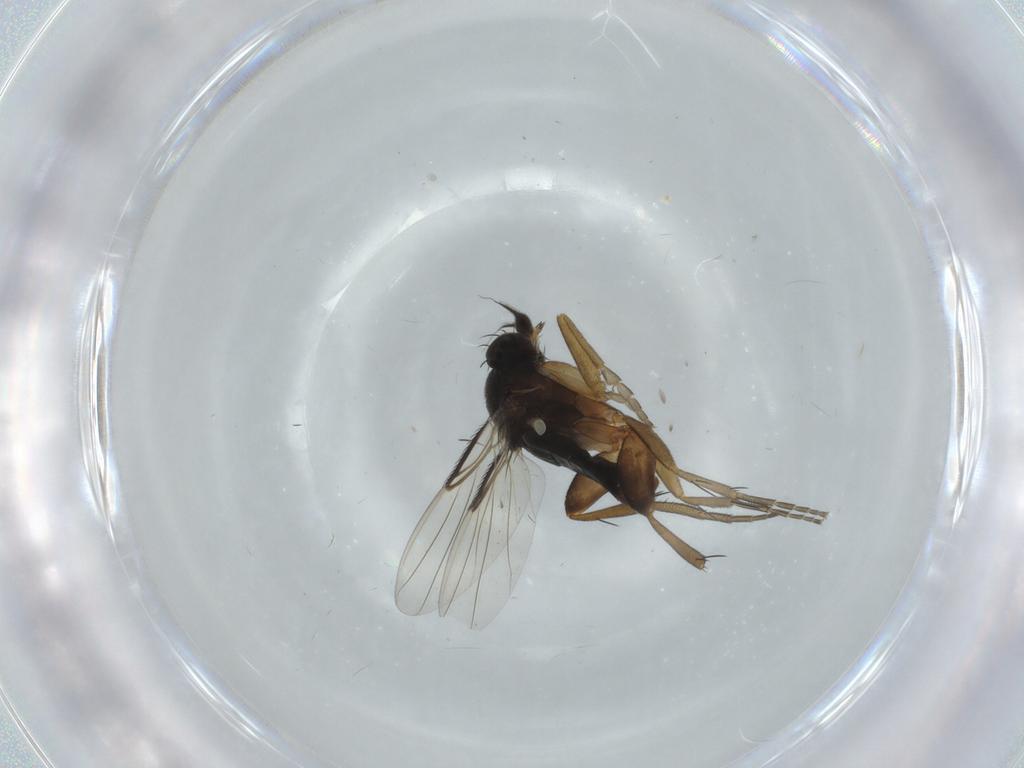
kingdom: Animalia
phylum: Arthropoda
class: Insecta
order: Diptera
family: Phoridae
